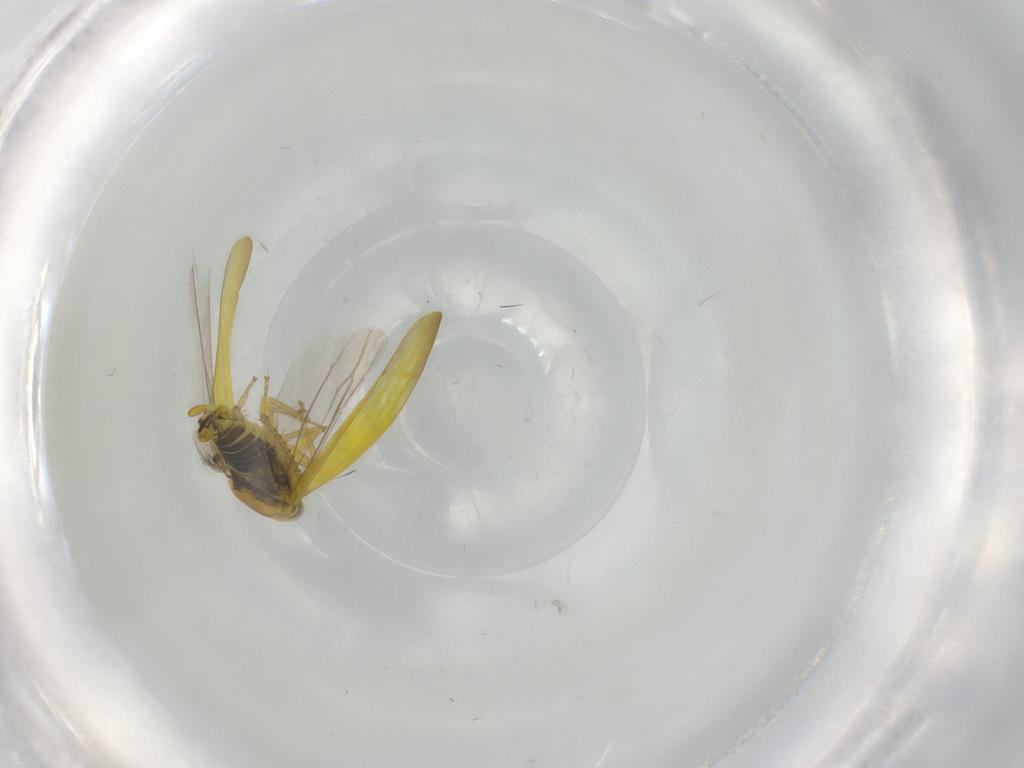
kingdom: Animalia
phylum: Arthropoda
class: Insecta
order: Hemiptera
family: Cicadellidae
